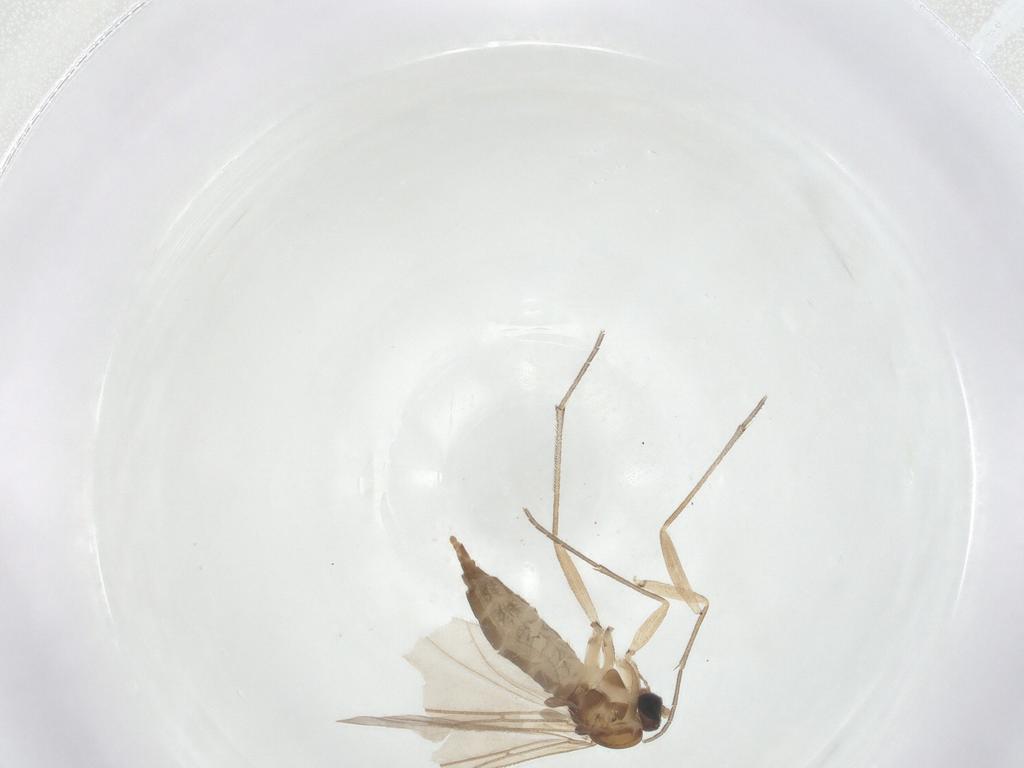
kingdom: Animalia
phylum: Arthropoda
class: Insecta
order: Diptera
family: Sciaridae
